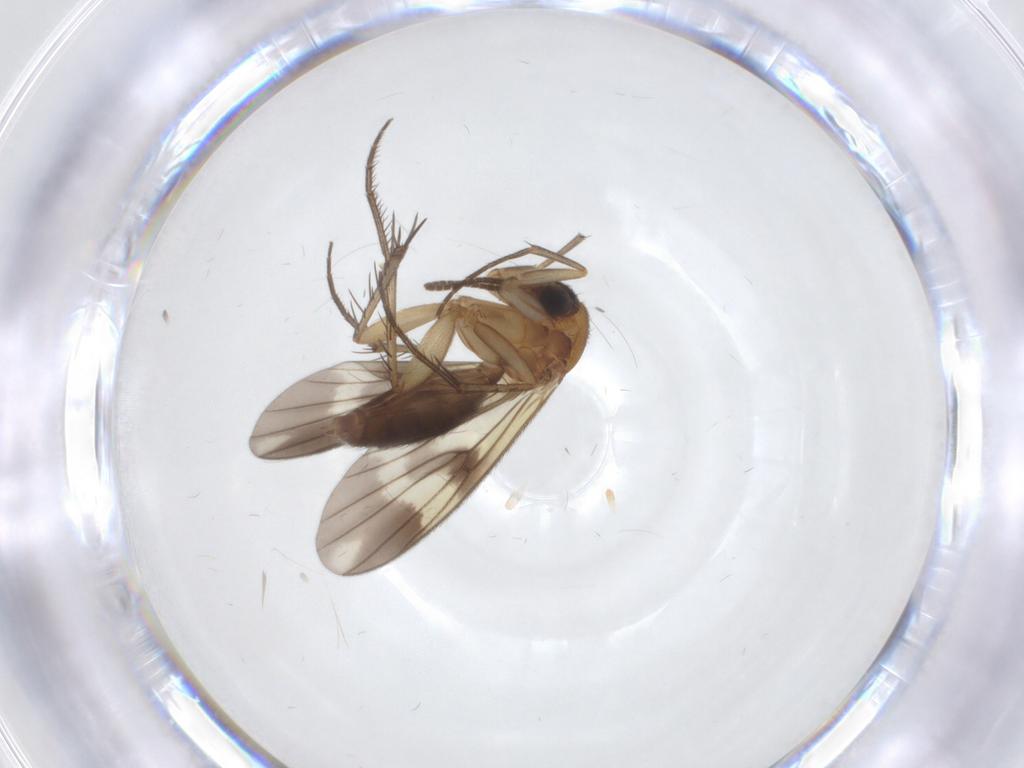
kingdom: Animalia
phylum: Arthropoda
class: Insecta
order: Diptera
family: Mycetophilidae
